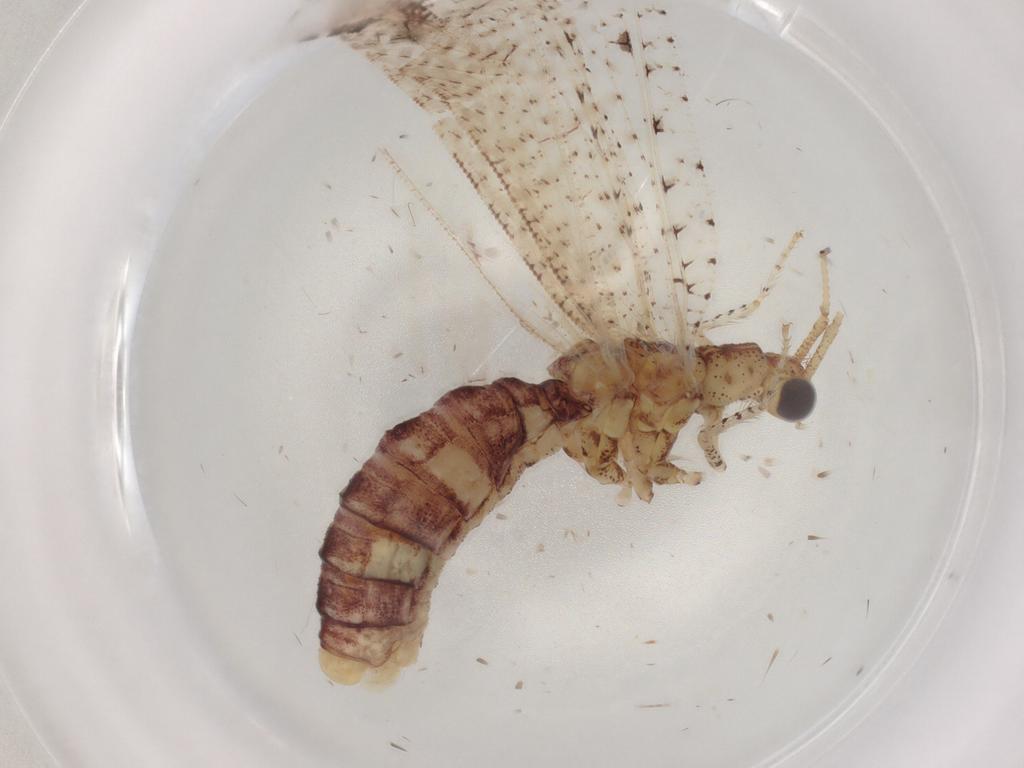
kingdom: Animalia
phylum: Arthropoda
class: Insecta
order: Neuroptera
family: Berothidae
